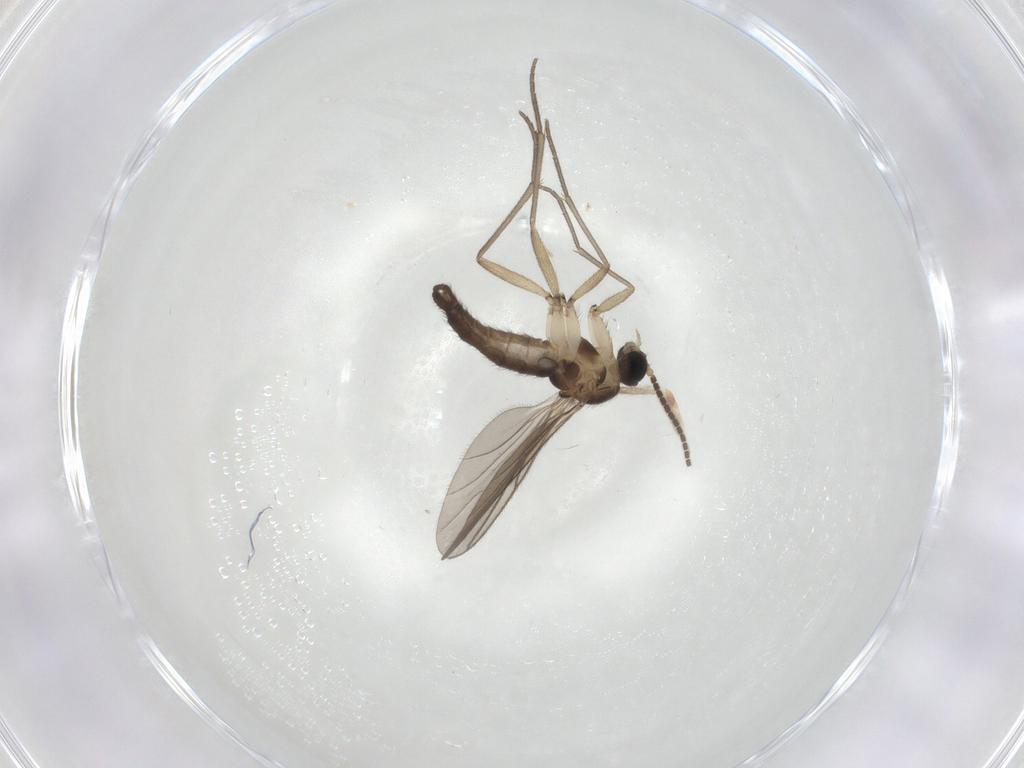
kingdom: Animalia
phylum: Arthropoda
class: Insecta
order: Diptera
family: Sciaridae
